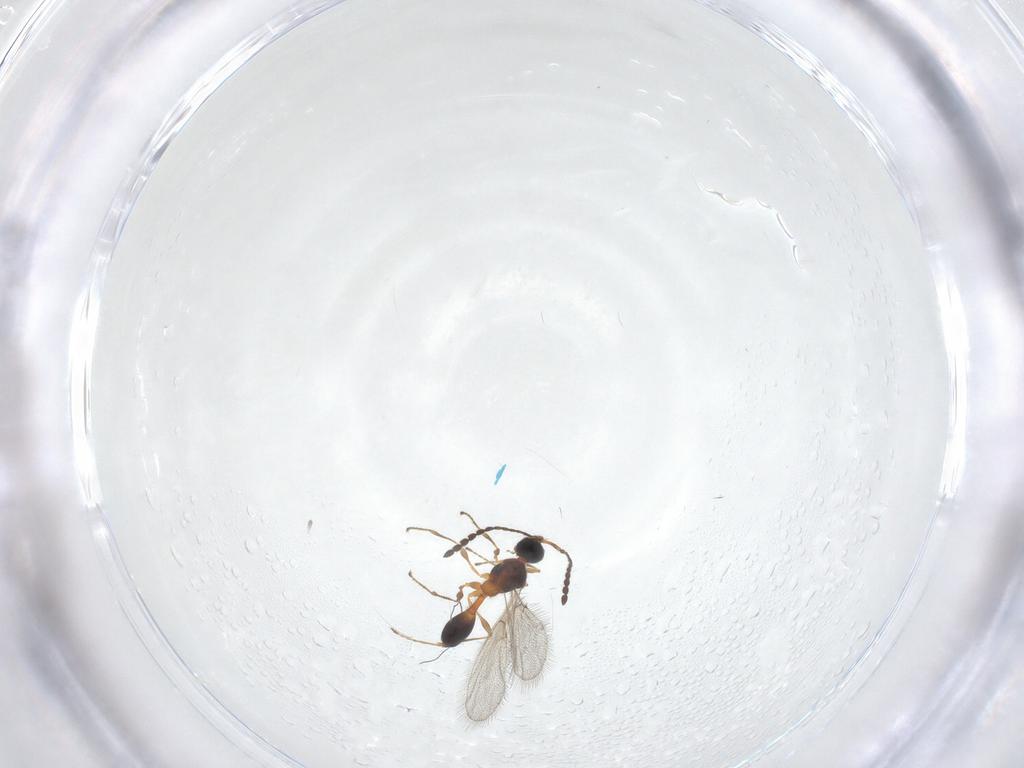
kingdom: Animalia
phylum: Arthropoda
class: Insecta
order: Hymenoptera
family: Diapriidae
